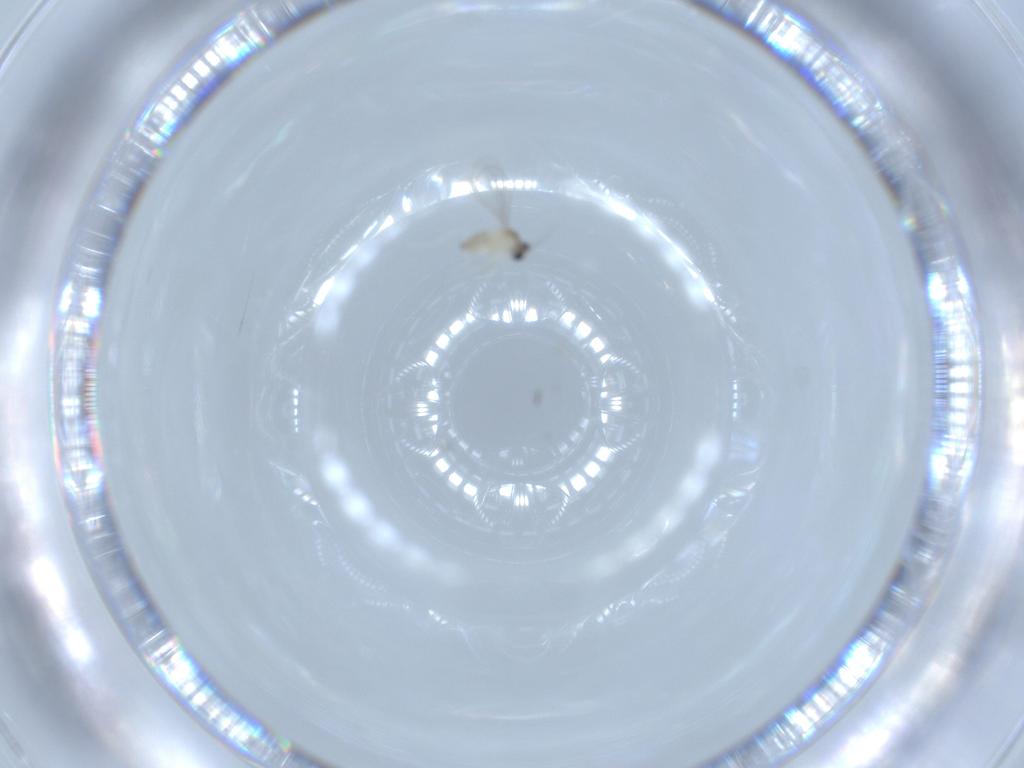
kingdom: Animalia
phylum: Arthropoda
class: Insecta
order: Diptera
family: Cecidomyiidae
